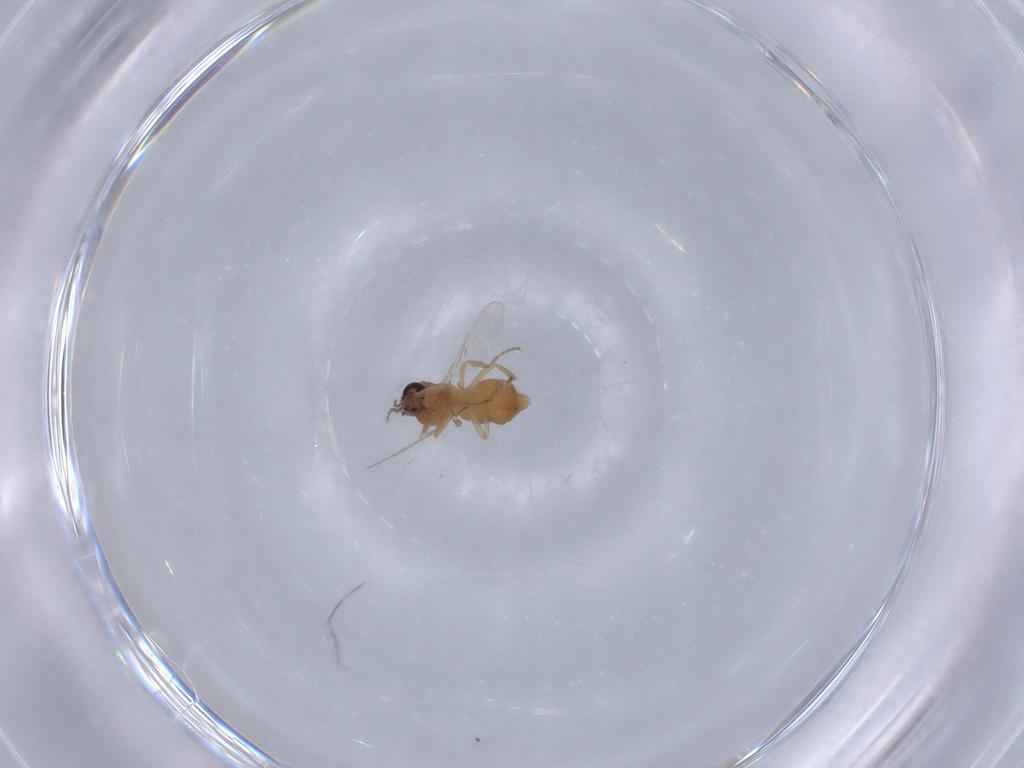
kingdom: Animalia
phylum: Arthropoda
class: Insecta
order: Diptera
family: Ceratopogonidae
